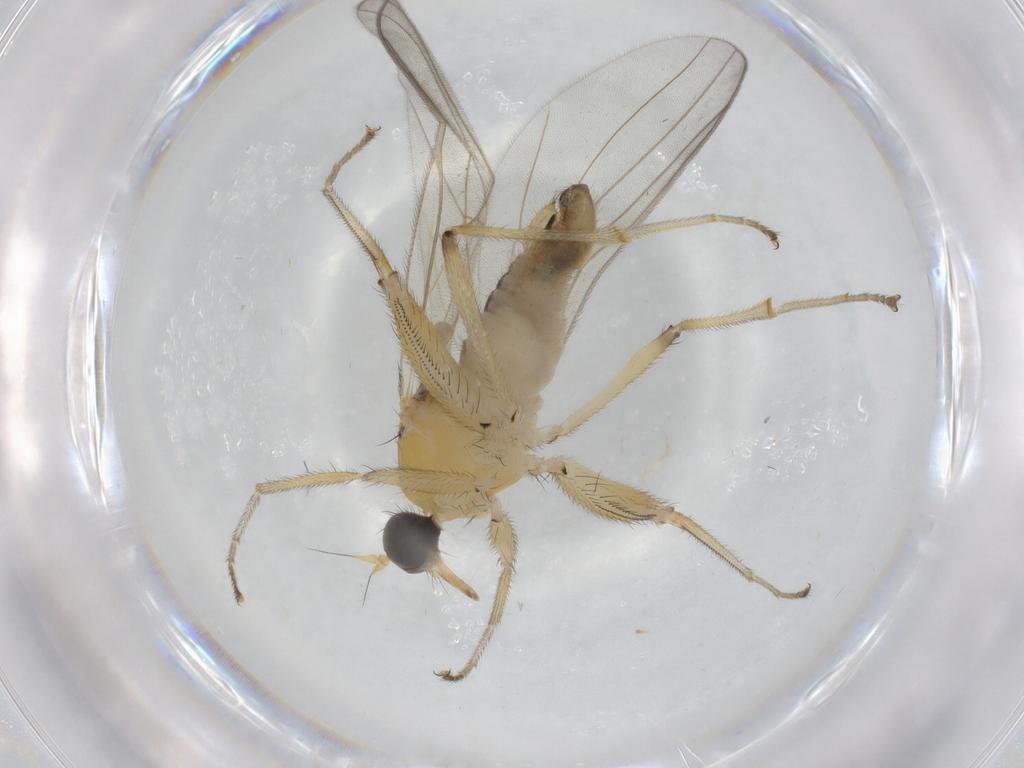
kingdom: Animalia
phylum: Arthropoda
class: Insecta
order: Diptera
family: Hybotidae
